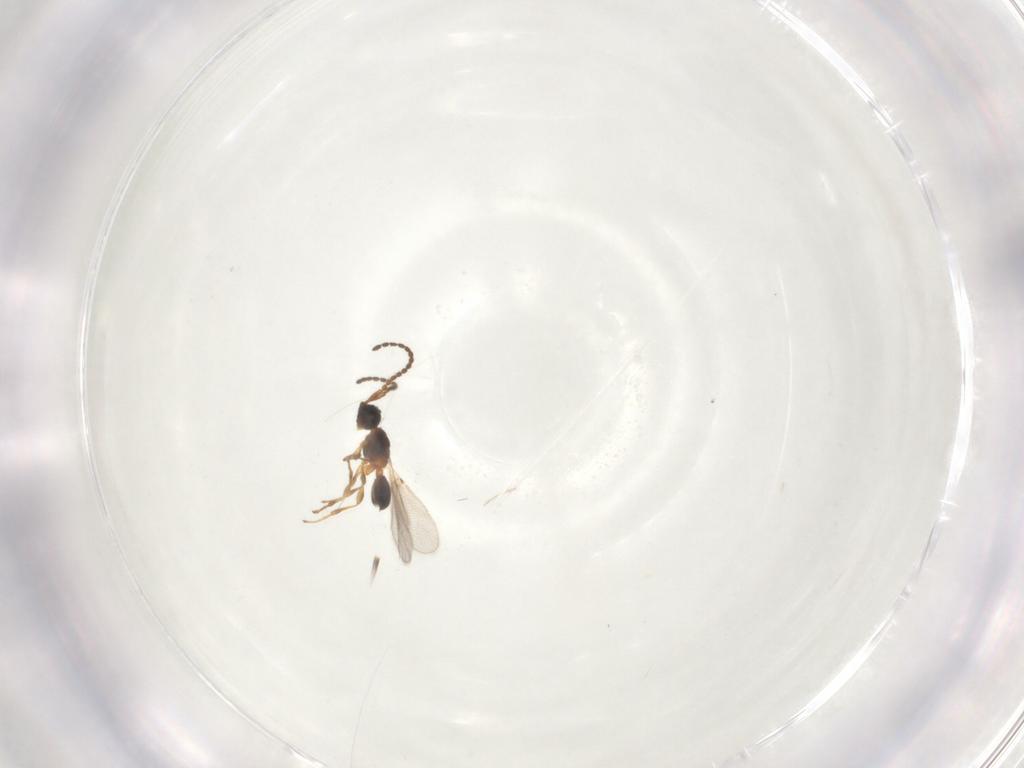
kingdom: Animalia
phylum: Arthropoda
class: Insecta
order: Hymenoptera
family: Diapriidae
